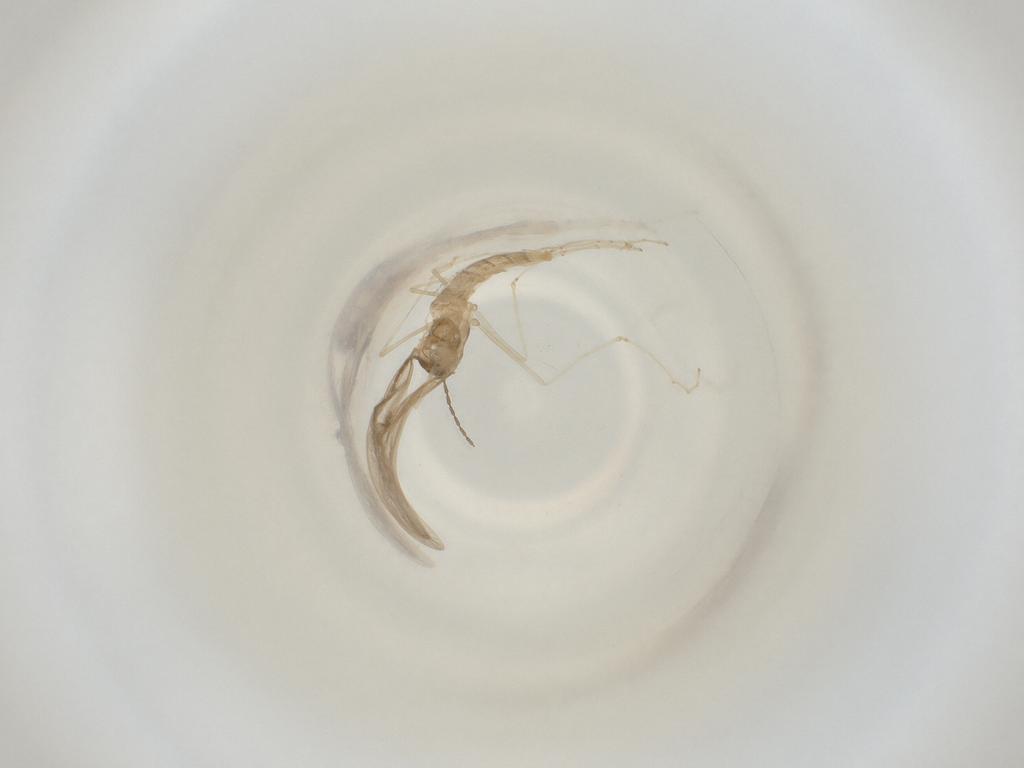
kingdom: Animalia
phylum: Arthropoda
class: Insecta
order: Diptera
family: Cecidomyiidae
